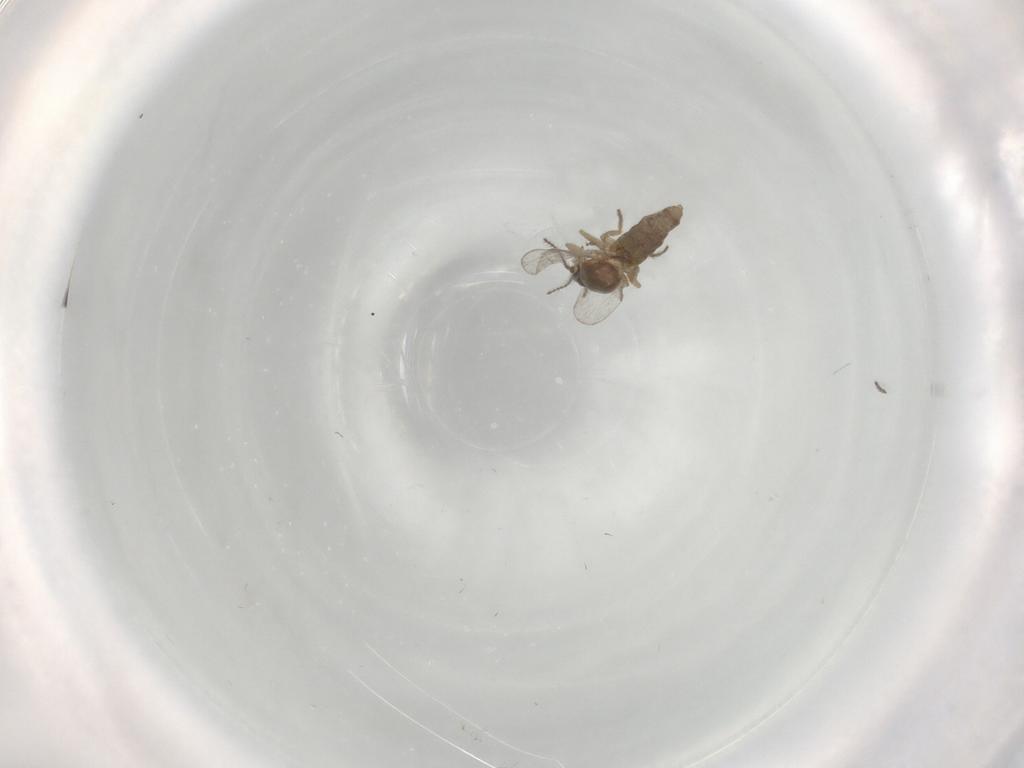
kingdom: Animalia
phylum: Arthropoda
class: Insecta
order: Diptera
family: Ceratopogonidae
